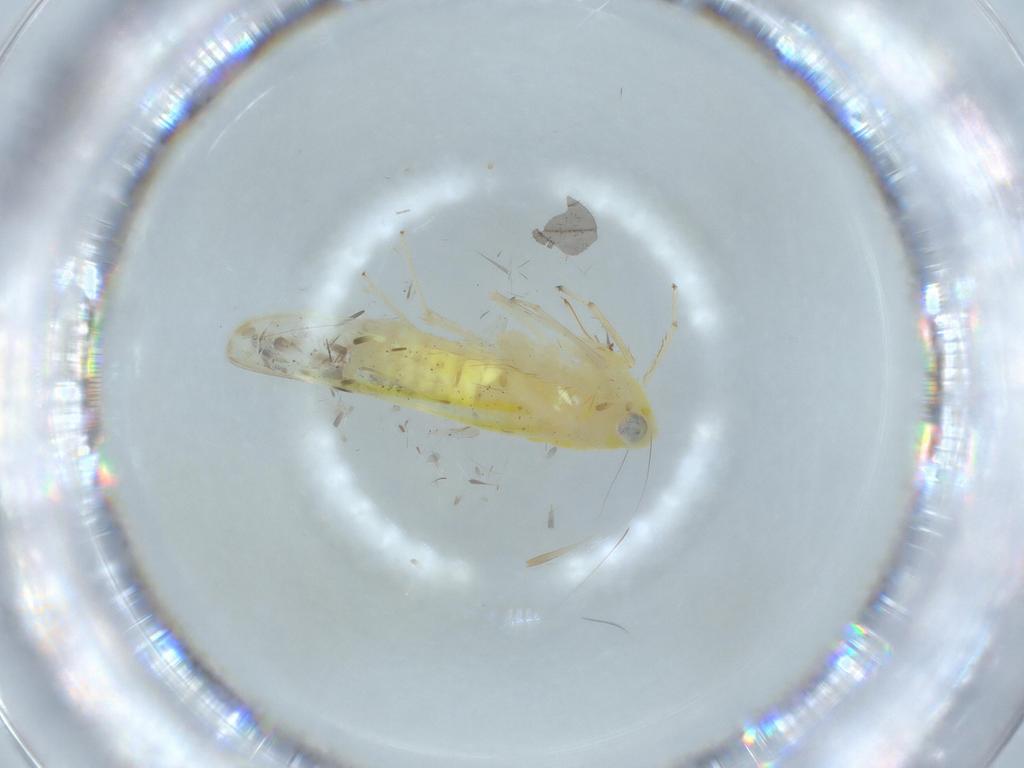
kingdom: Animalia
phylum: Arthropoda
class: Insecta
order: Hemiptera
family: Cicadellidae
